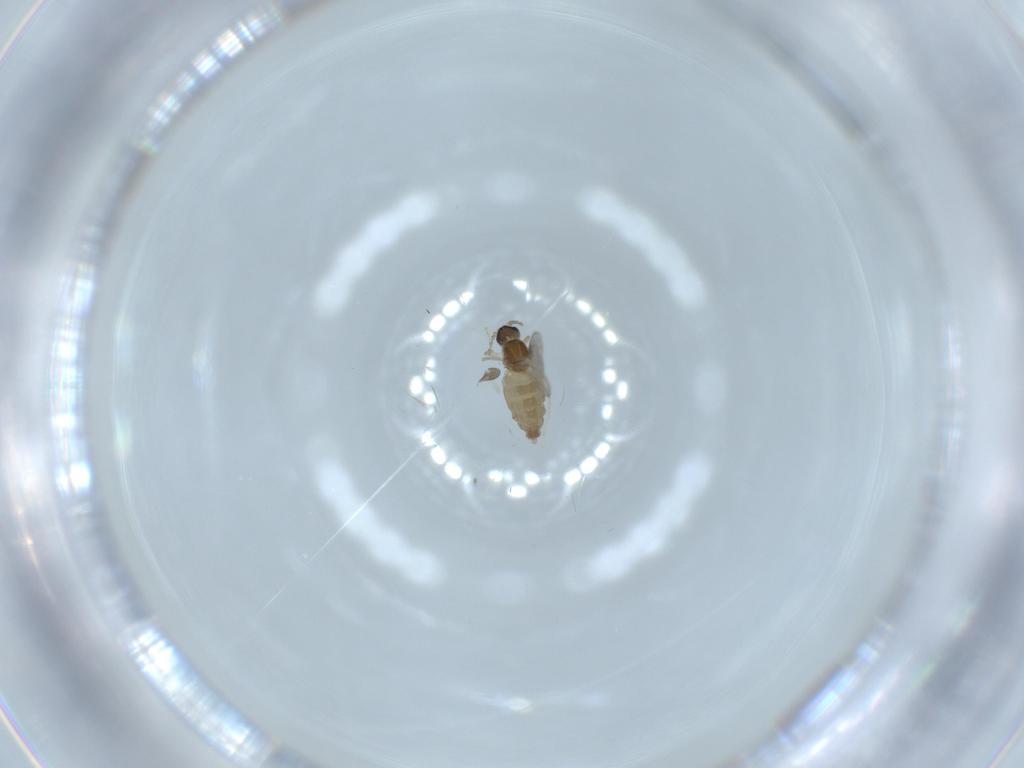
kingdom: Animalia
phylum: Arthropoda
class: Insecta
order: Diptera
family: Cecidomyiidae
